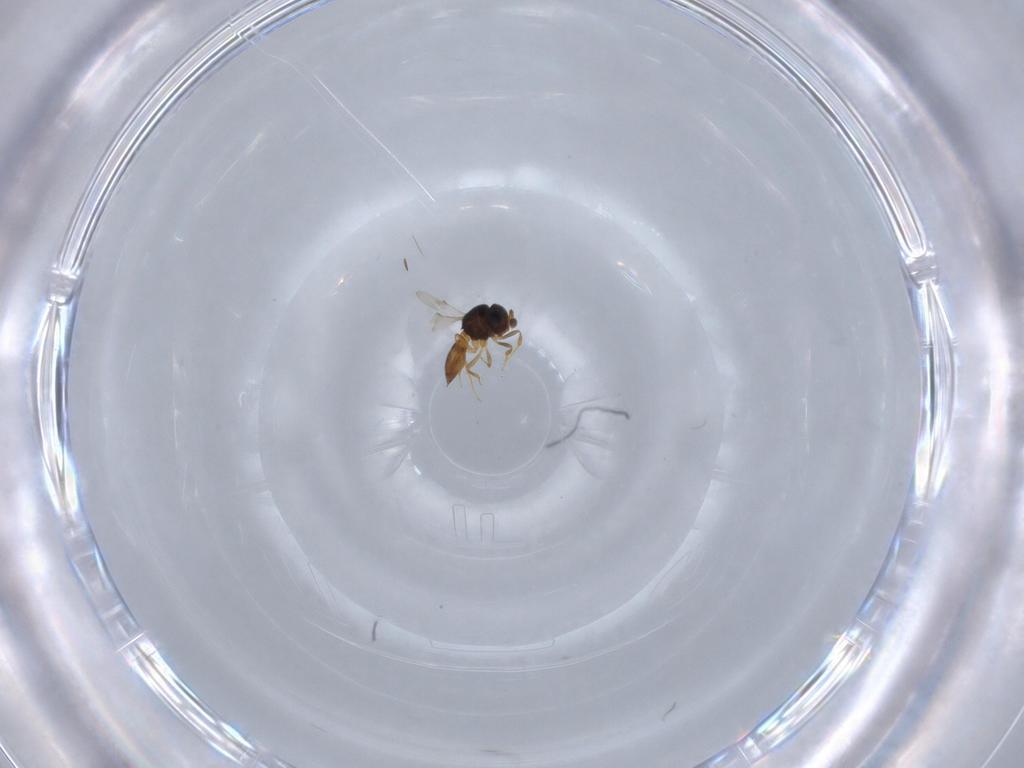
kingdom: Animalia
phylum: Arthropoda
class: Insecta
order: Hymenoptera
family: Scelionidae
